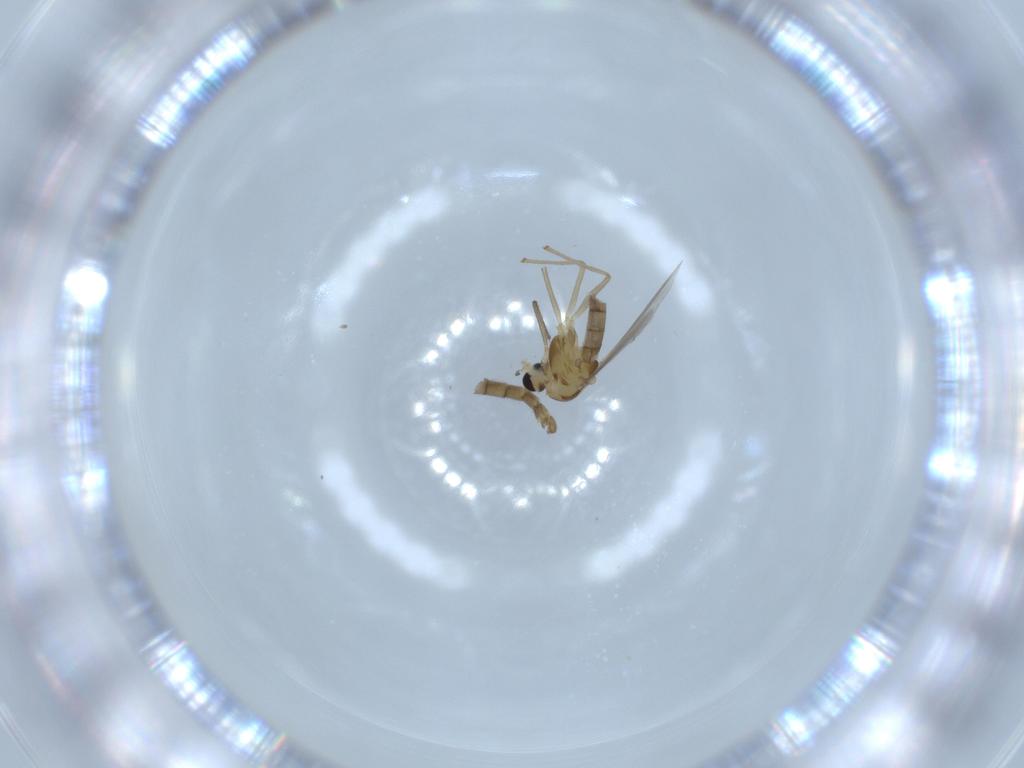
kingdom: Animalia
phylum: Arthropoda
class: Insecta
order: Diptera
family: Chironomidae
